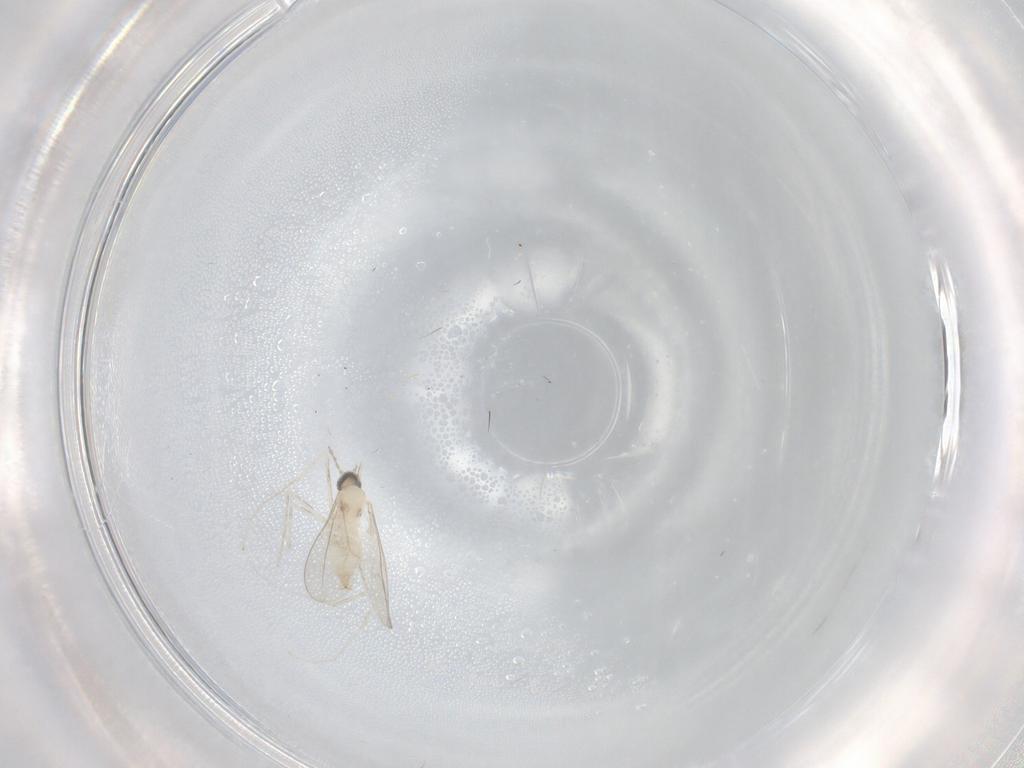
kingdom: Animalia
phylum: Arthropoda
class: Insecta
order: Diptera
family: Cecidomyiidae
